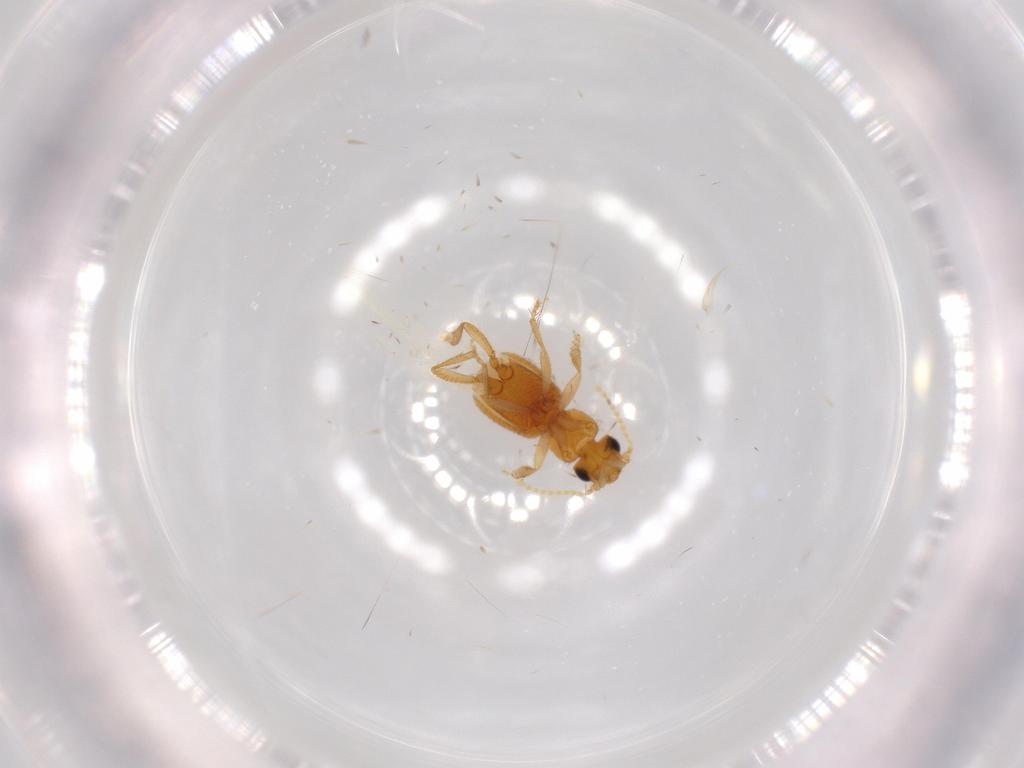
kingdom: Animalia
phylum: Arthropoda
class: Insecta
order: Coleoptera
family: Staphylinidae
